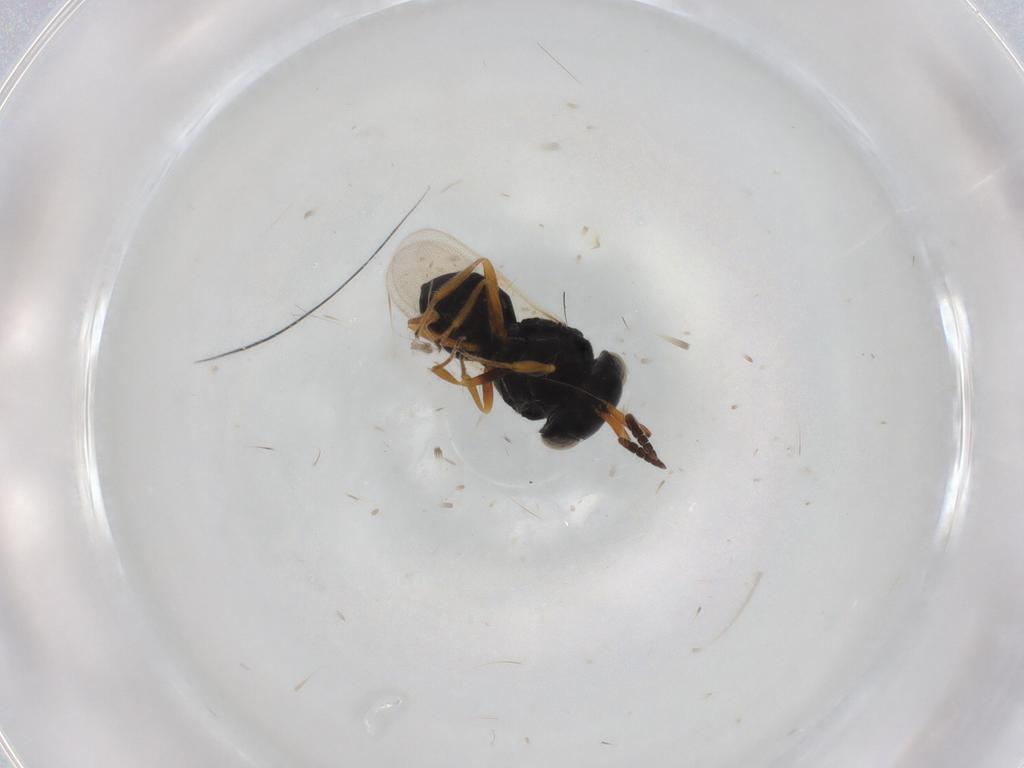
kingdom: Animalia
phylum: Arthropoda
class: Insecta
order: Hymenoptera
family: Scelionidae
